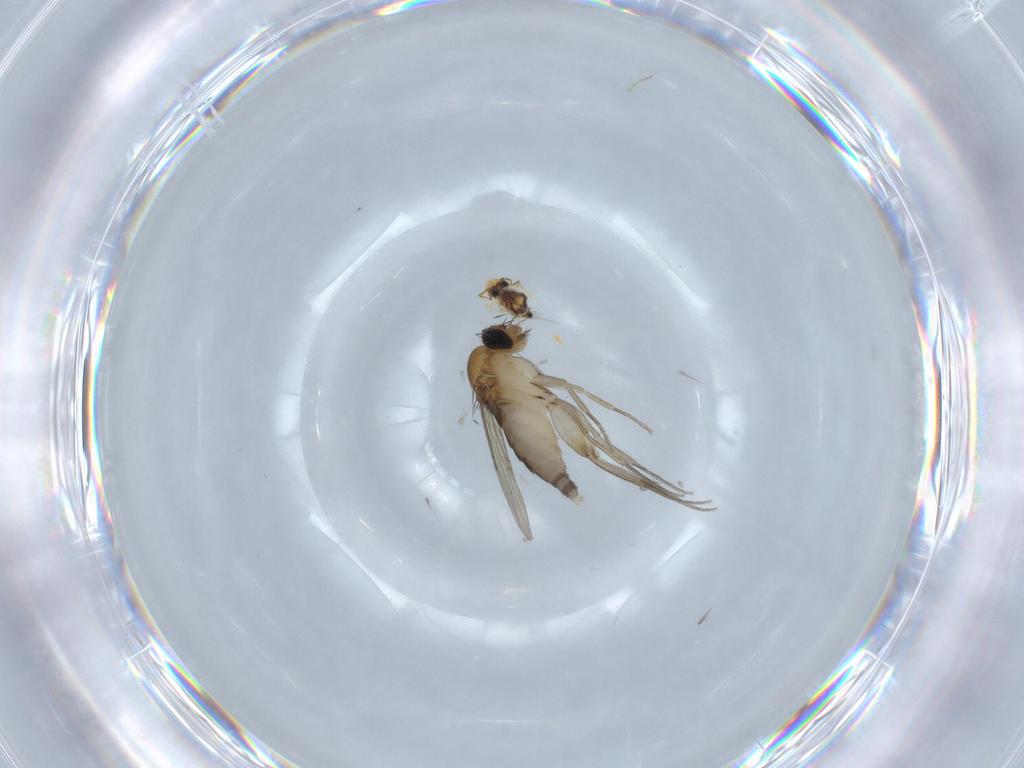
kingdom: Animalia
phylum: Arthropoda
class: Insecta
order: Diptera
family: Phoridae
